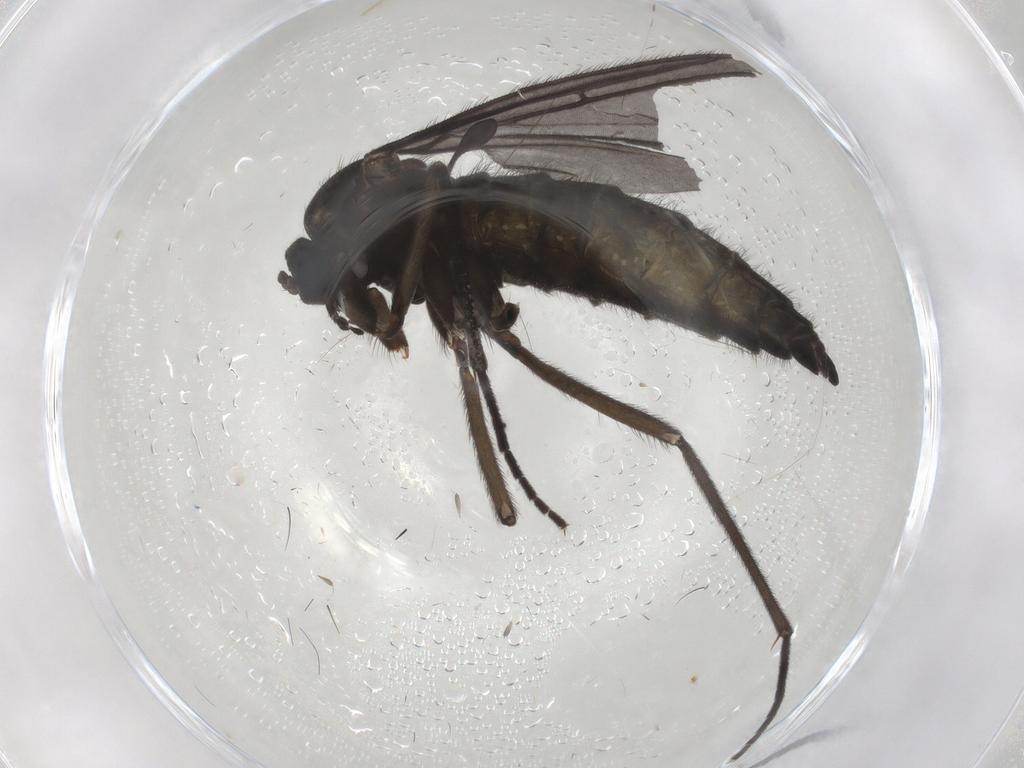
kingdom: Animalia
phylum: Arthropoda
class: Insecta
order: Diptera
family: Sciaridae
